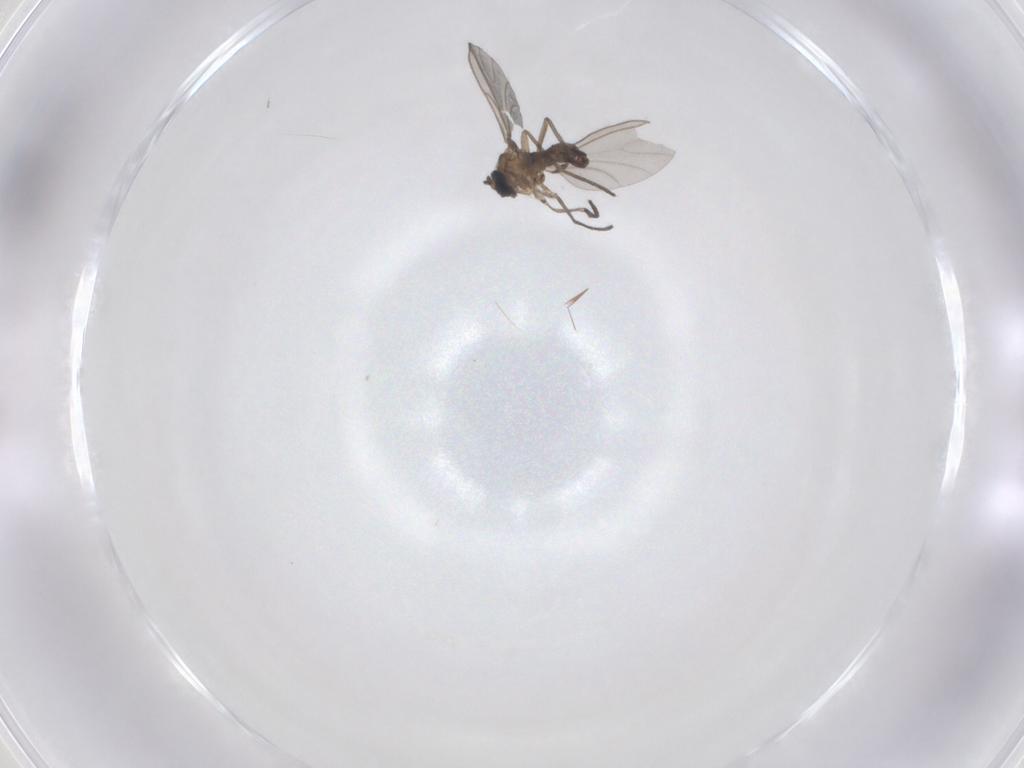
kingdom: Animalia
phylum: Arthropoda
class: Insecta
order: Diptera
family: Sciaridae
